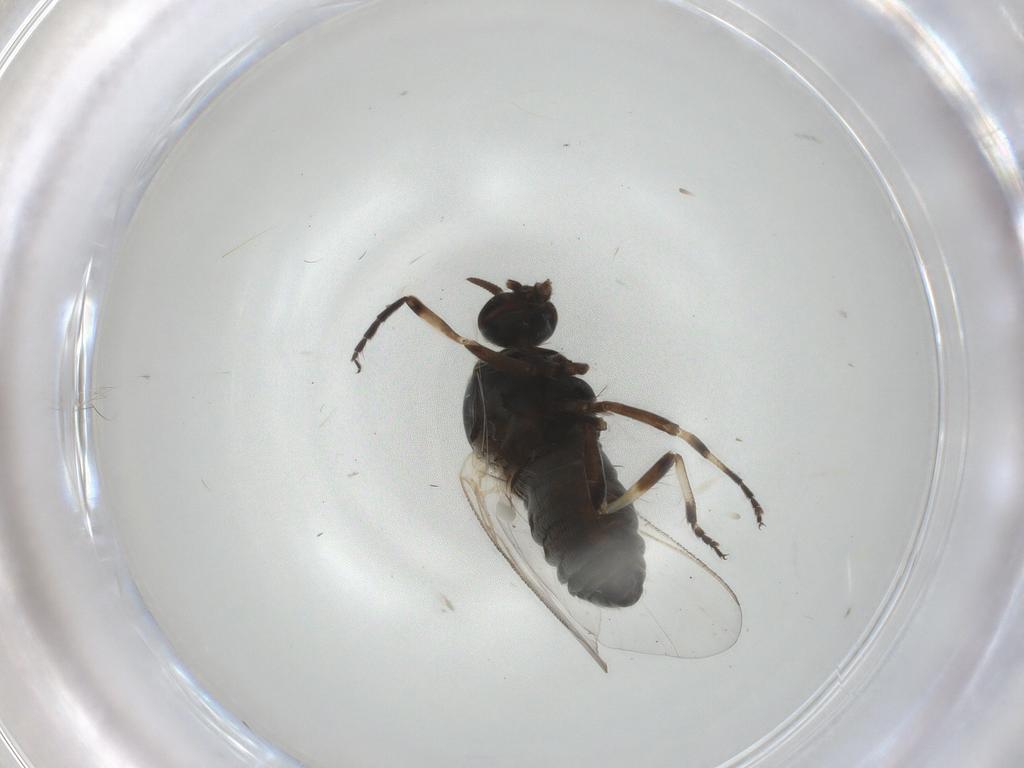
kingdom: Animalia
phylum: Arthropoda
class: Insecta
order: Diptera
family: Simuliidae
